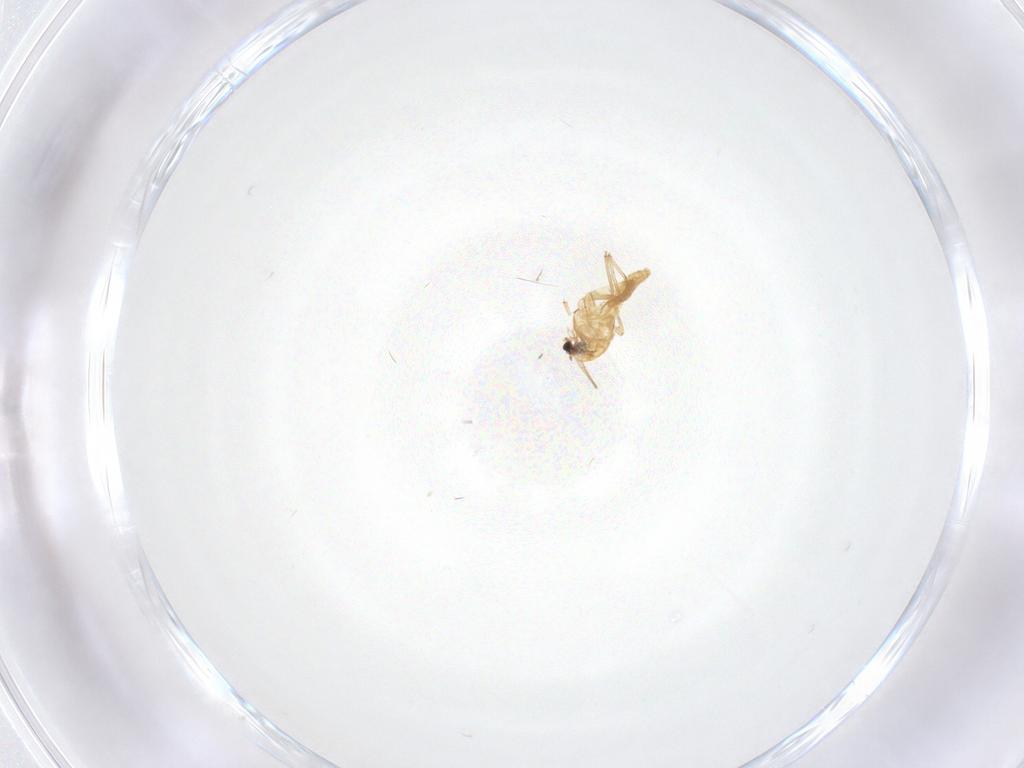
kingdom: Animalia
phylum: Arthropoda
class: Insecta
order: Diptera
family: Chironomidae
